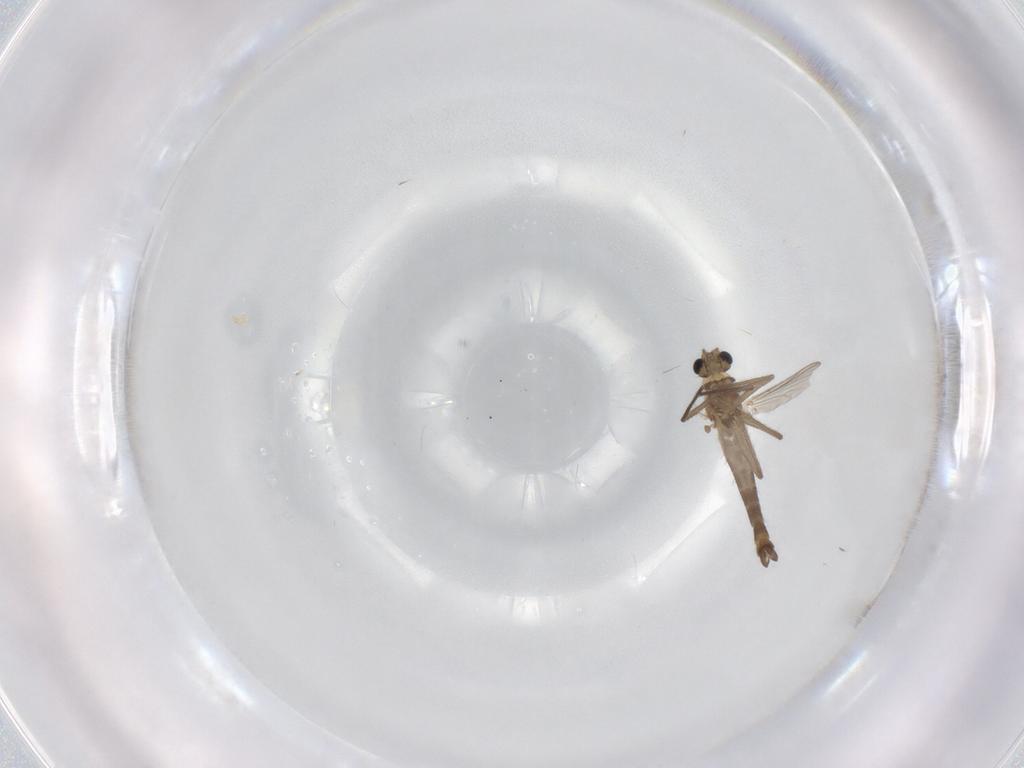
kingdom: Animalia
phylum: Arthropoda
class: Insecta
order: Diptera
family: Chironomidae
